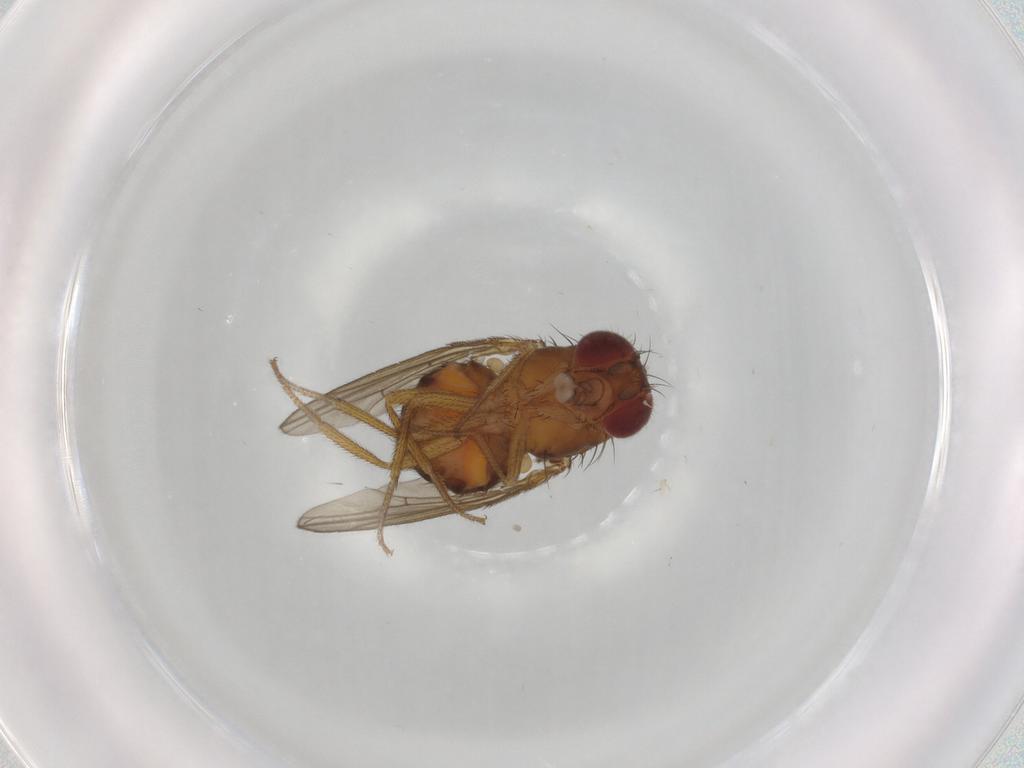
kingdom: Animalia
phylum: Arthropoda
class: Insecta
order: Diptera
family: Drosophilidae
